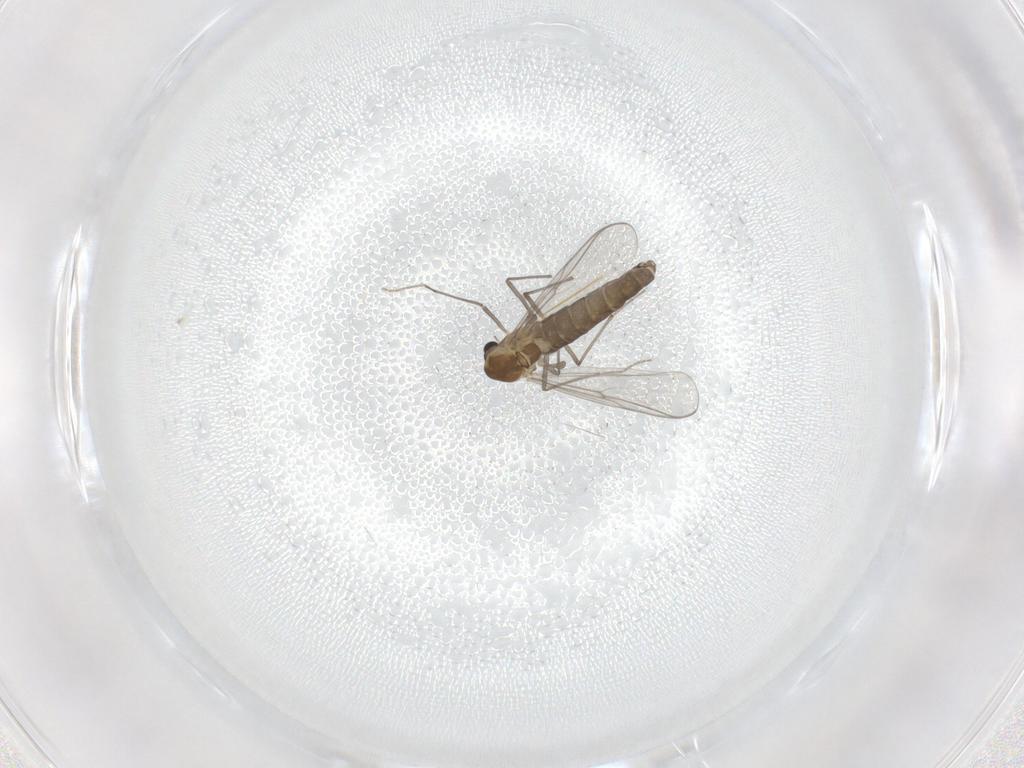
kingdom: Animalia
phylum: Arthropoda
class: Insecta
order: Diptera
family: Chironomidae
